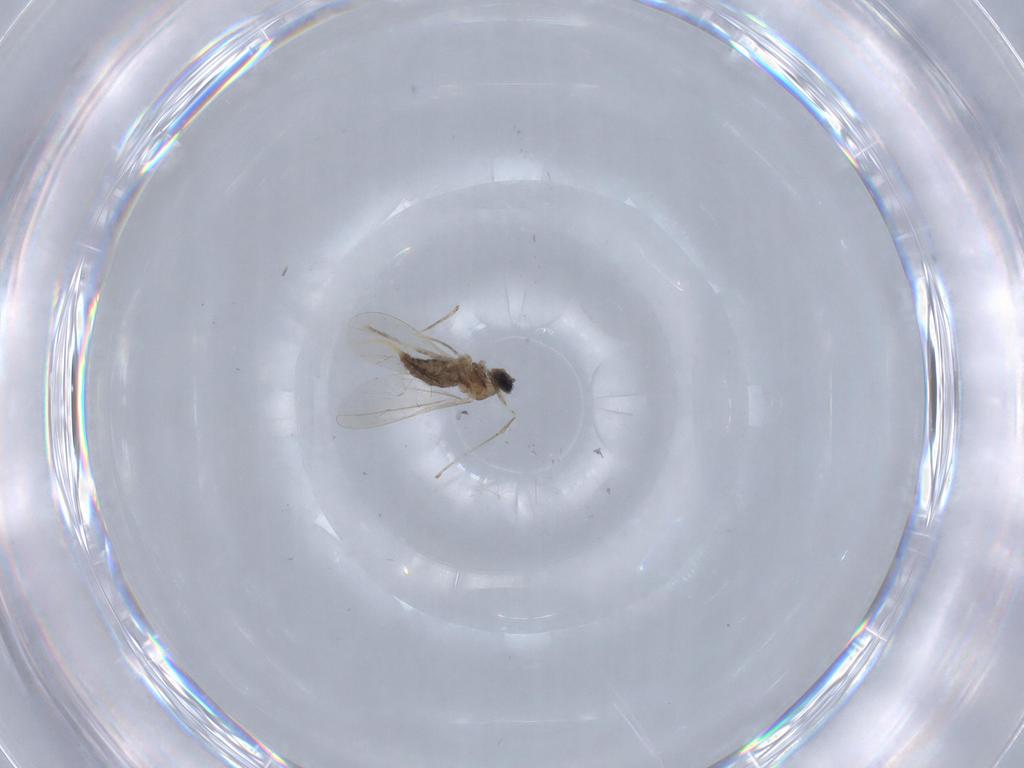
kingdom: Animalia
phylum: Arthropoda
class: Insecta
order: Diptera
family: Cecidomyiidae
